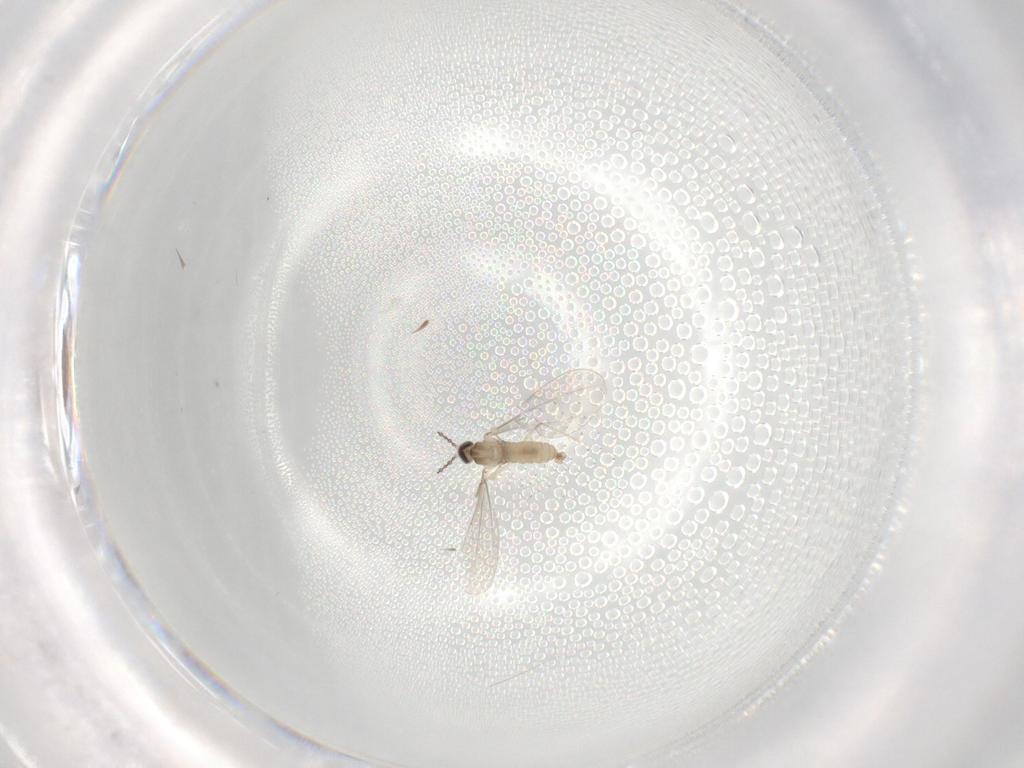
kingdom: Animalia
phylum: Arthropoda
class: Insecta
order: Diptera
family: Cecidomyiidae
